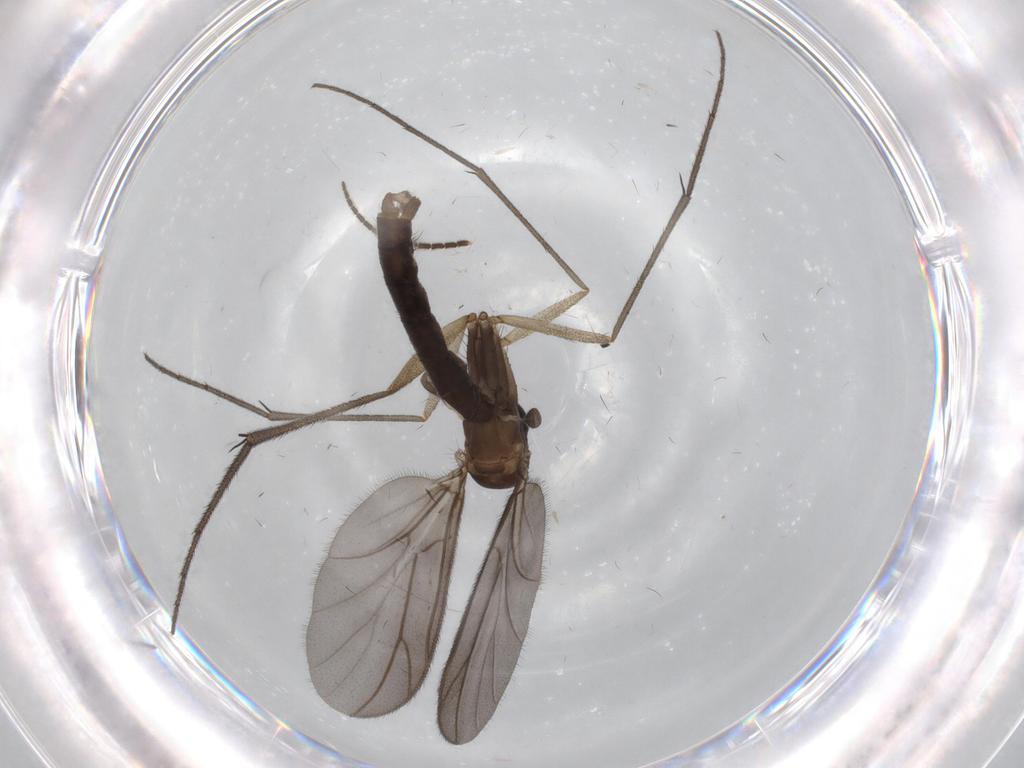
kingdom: Animalia
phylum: Arthropoda
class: Insecta
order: Diptera
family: Ditomyiidae
